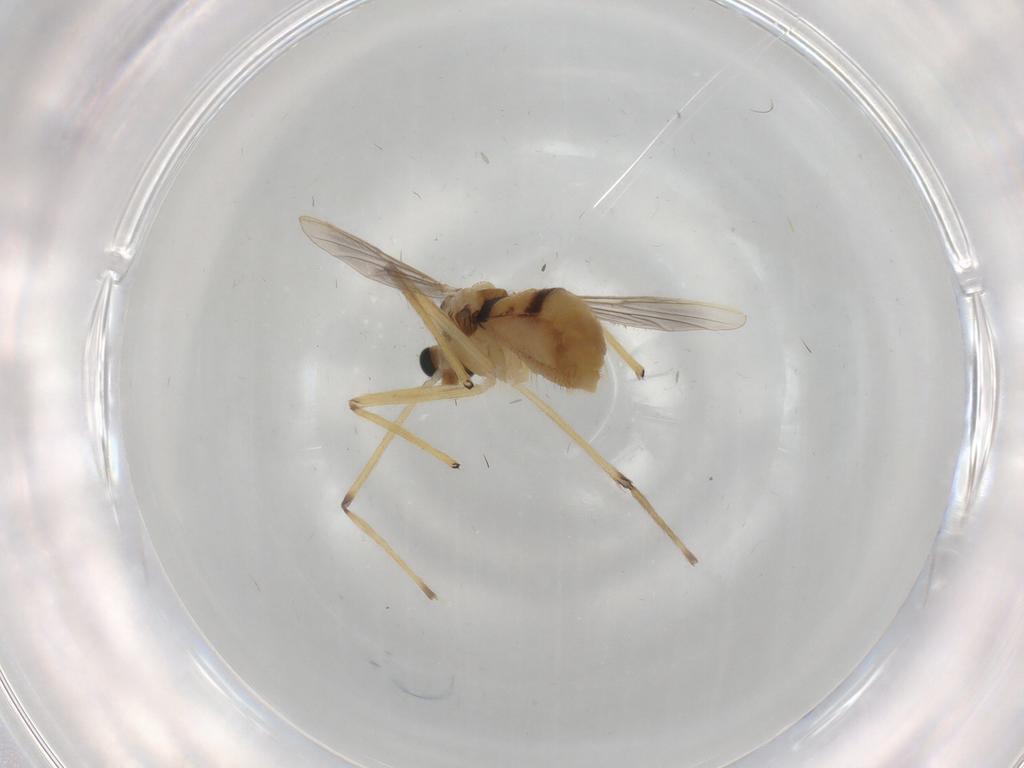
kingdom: Animalia
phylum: Arthropoda
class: Insecta
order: Diptera
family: Chironomidae
